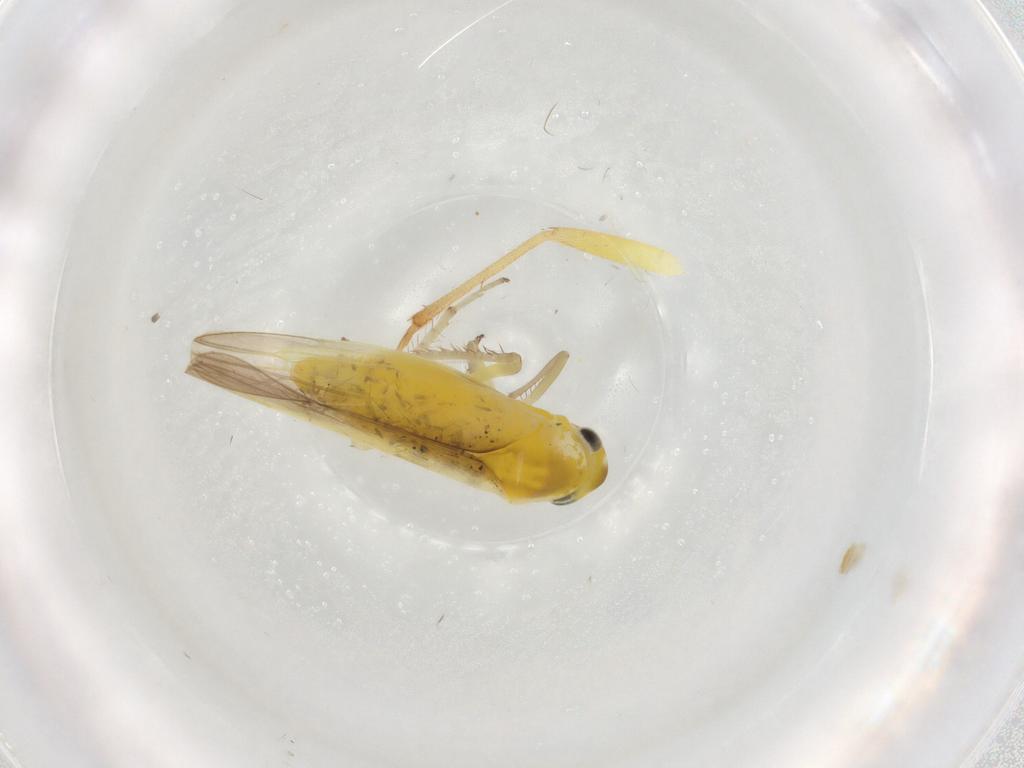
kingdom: Animalia
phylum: Arthropoda
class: Insecta
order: Hemiptera
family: Cicadellidae
